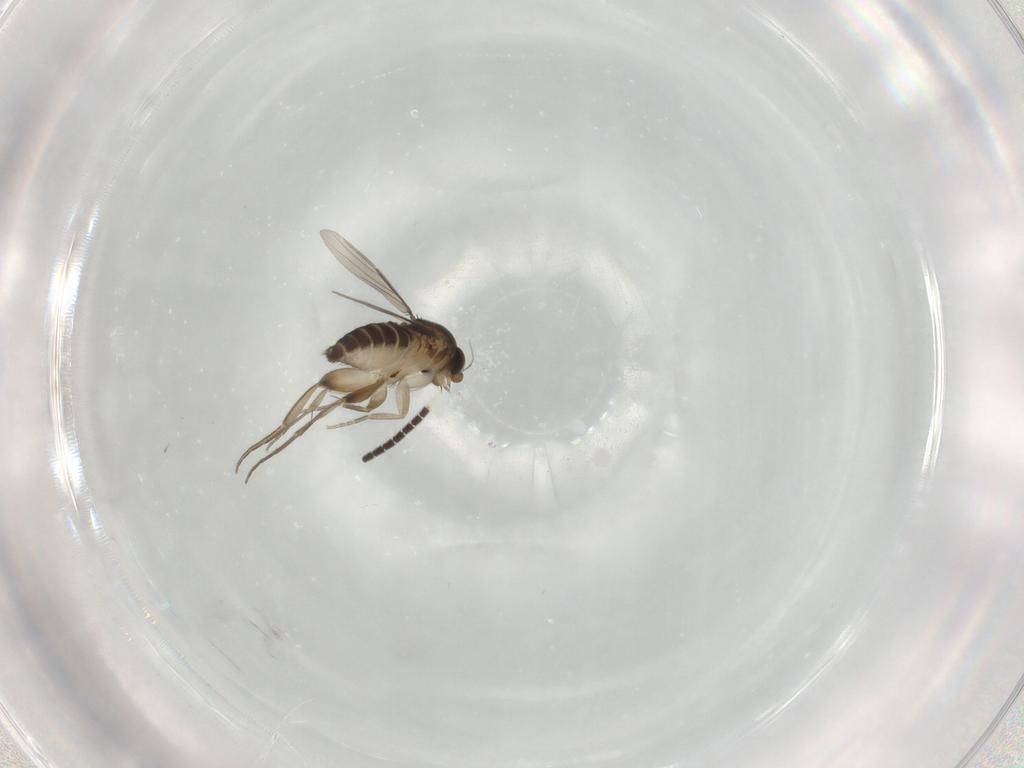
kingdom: Animalia
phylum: Arthropoda
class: Insecta
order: Diptera
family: Phoridae
